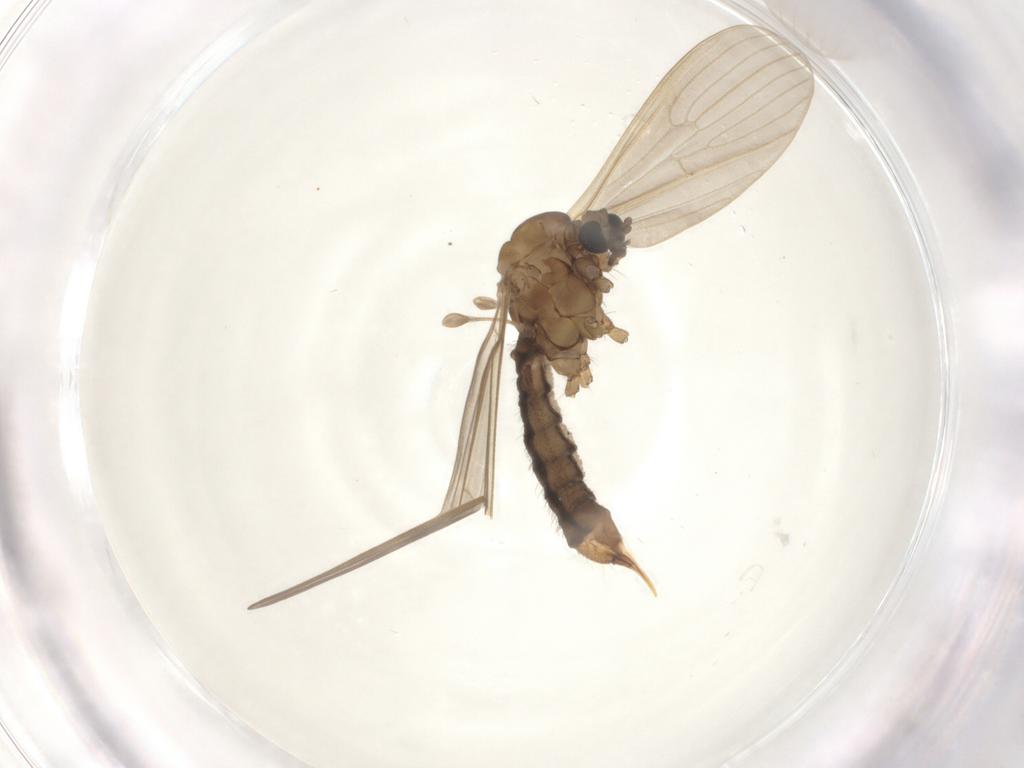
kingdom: Animalia
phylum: Arthropoda
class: Insecta
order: Diptera
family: Limoniidae
